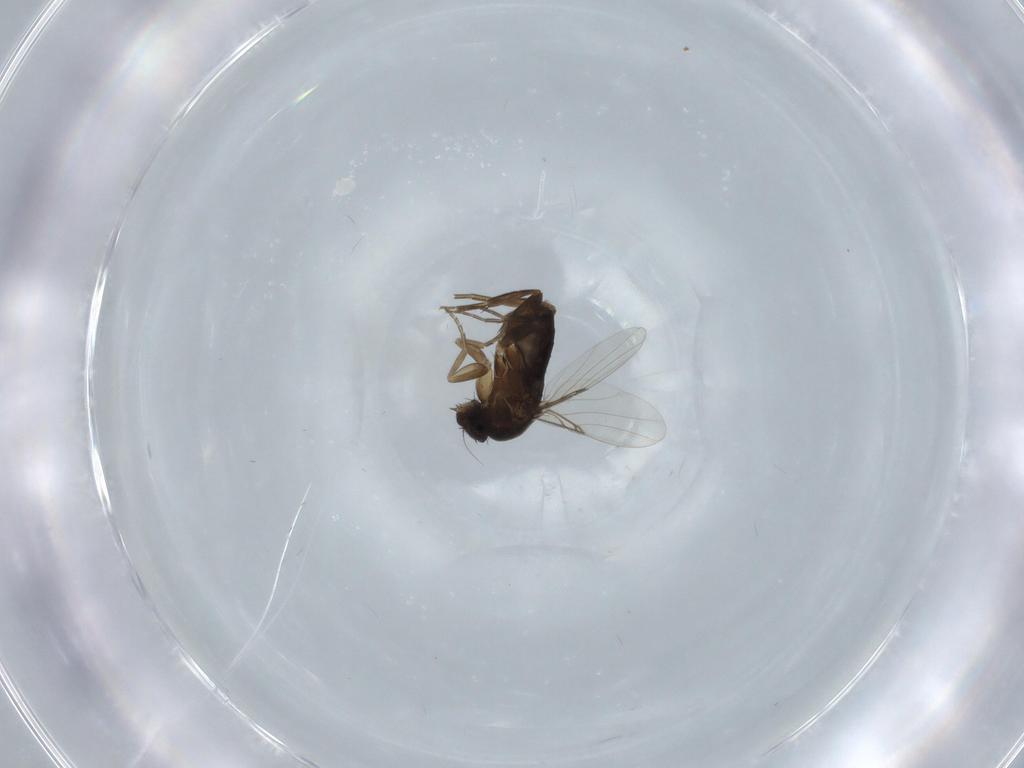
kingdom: Animalia
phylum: Arthropoda
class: Insecta
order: Diptera
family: Phoridae
